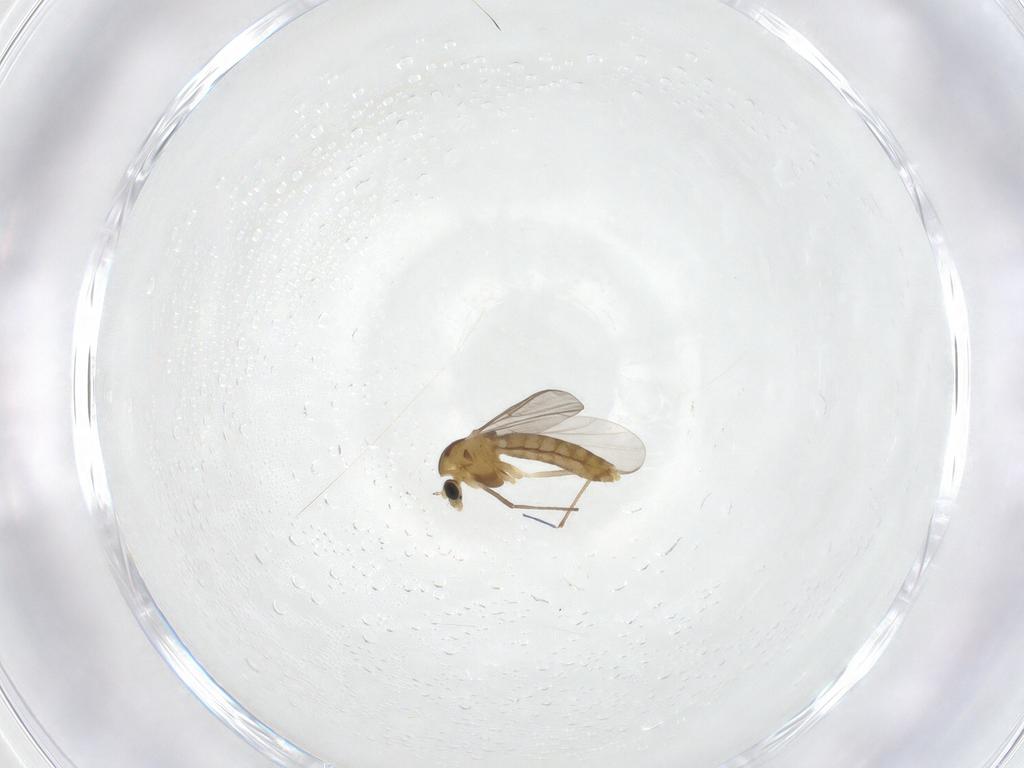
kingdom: Animalia
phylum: Arthropoda
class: Insecta
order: Diptera
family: Chironomidae
